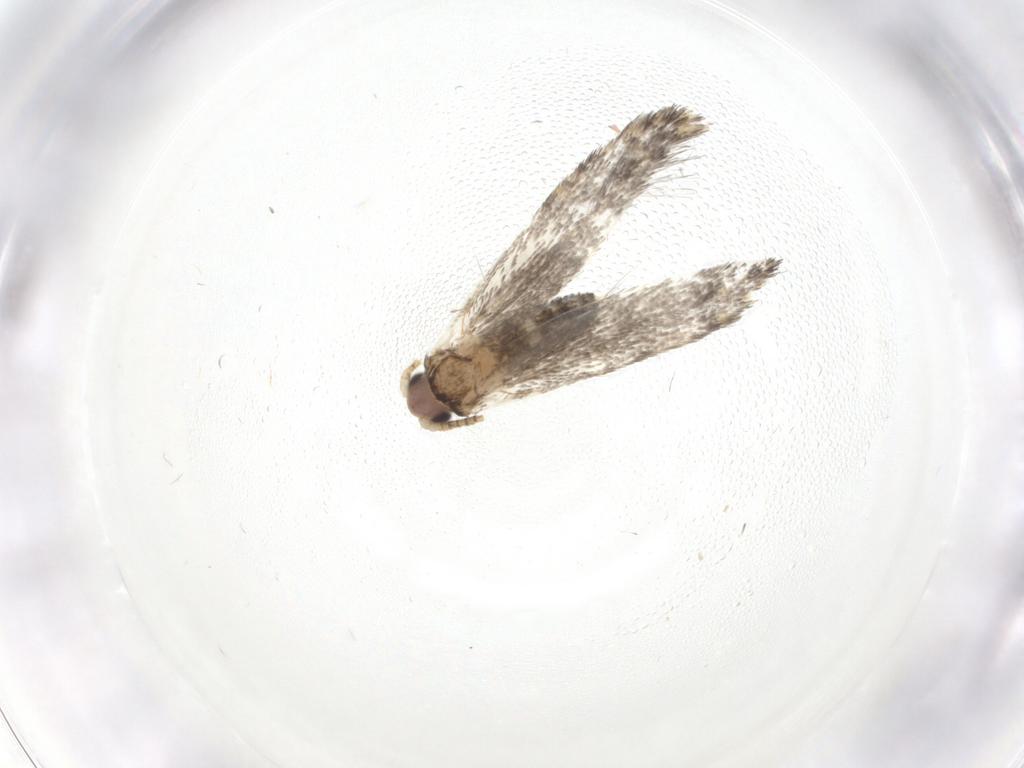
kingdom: Animalia
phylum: Arthropoda
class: Insecta
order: Lepidoptera
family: Tineidae
